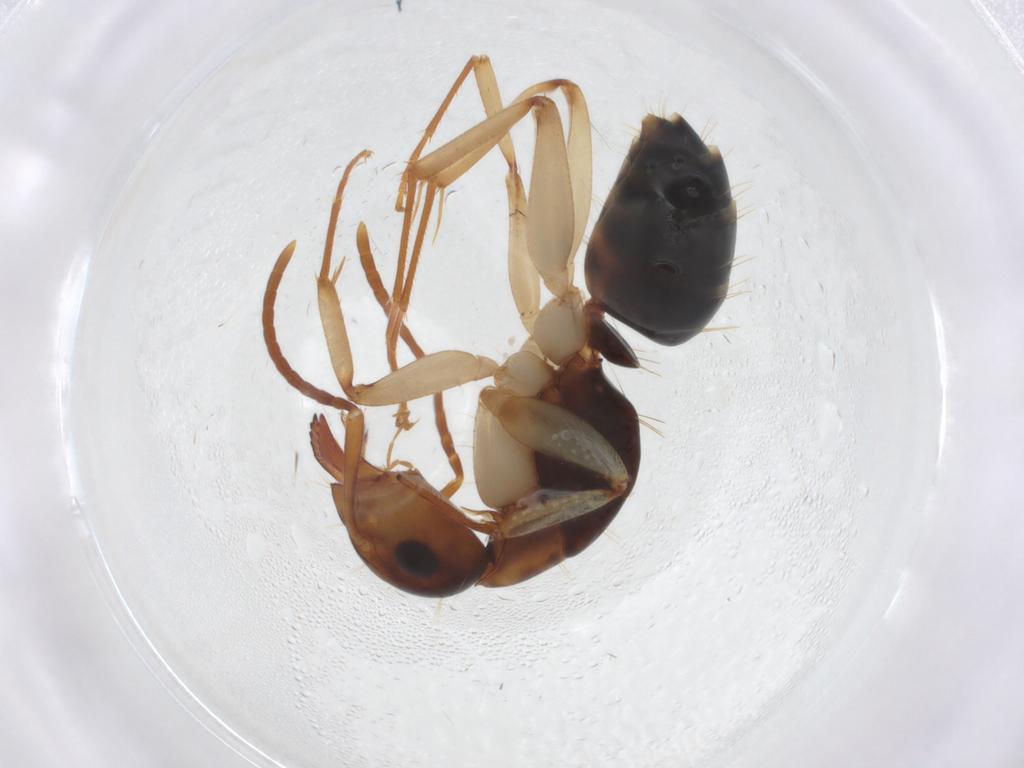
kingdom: Animalia
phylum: Arthropoda
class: Insecta
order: Hymenoptera
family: Formicidae
